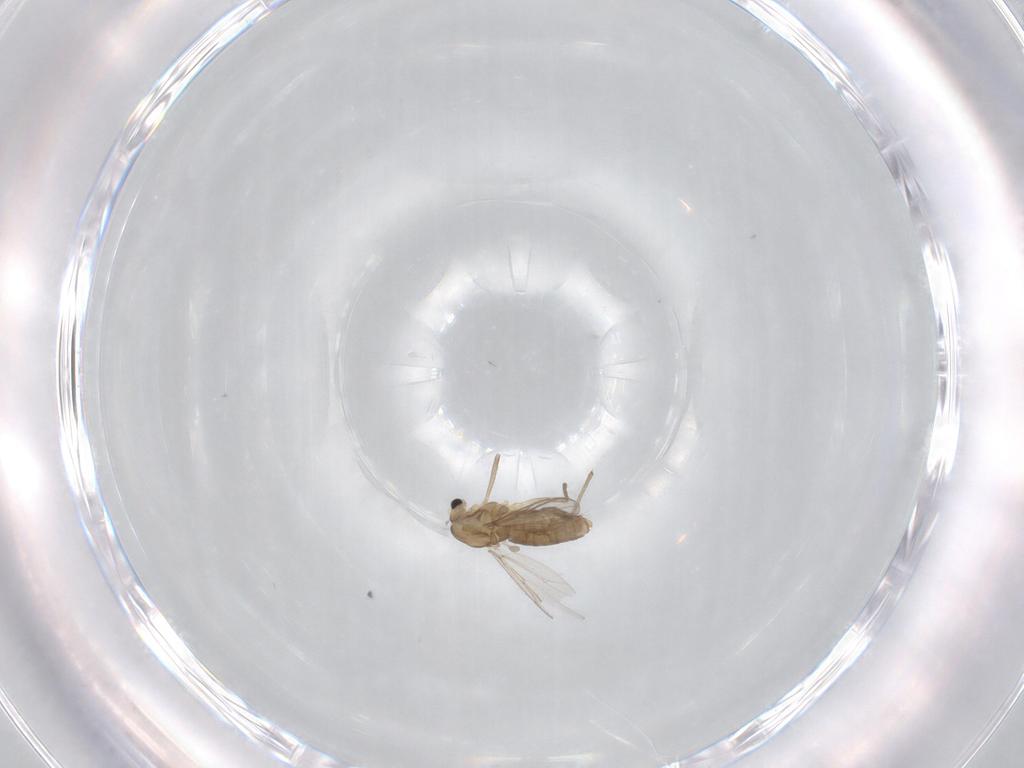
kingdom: Animalia
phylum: Arthropoda
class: Insecta
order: Diptera
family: Chironomidae
